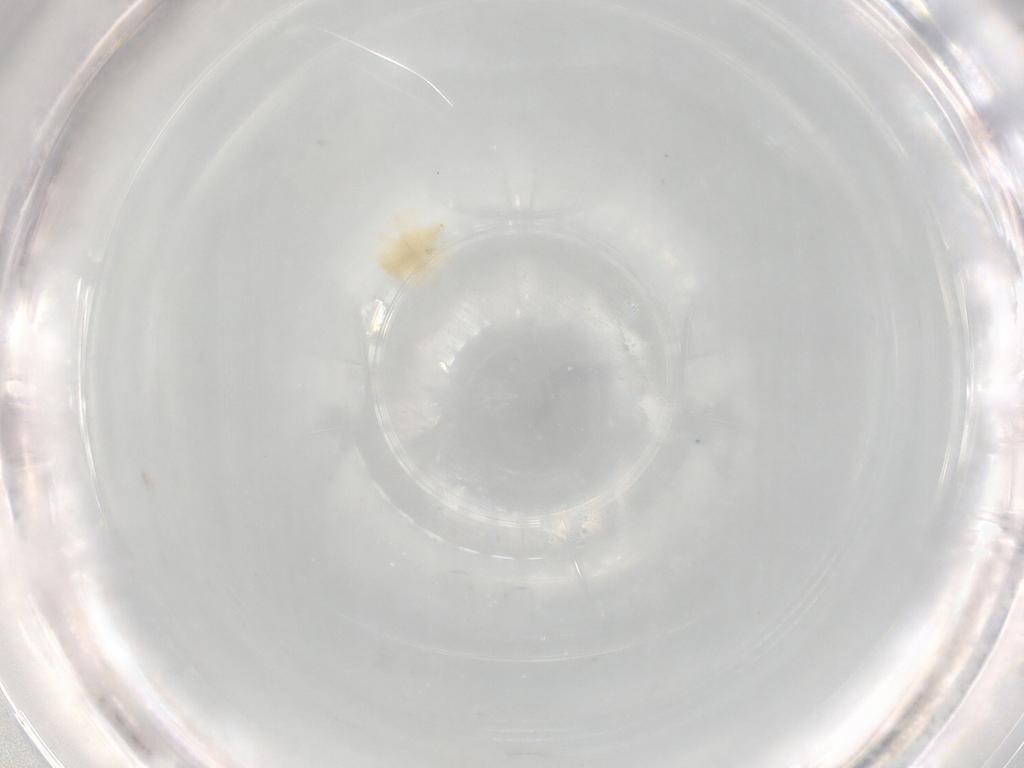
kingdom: Animalia
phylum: Arthropoda
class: Arachnida
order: Trombidiformes
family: Anystidae
